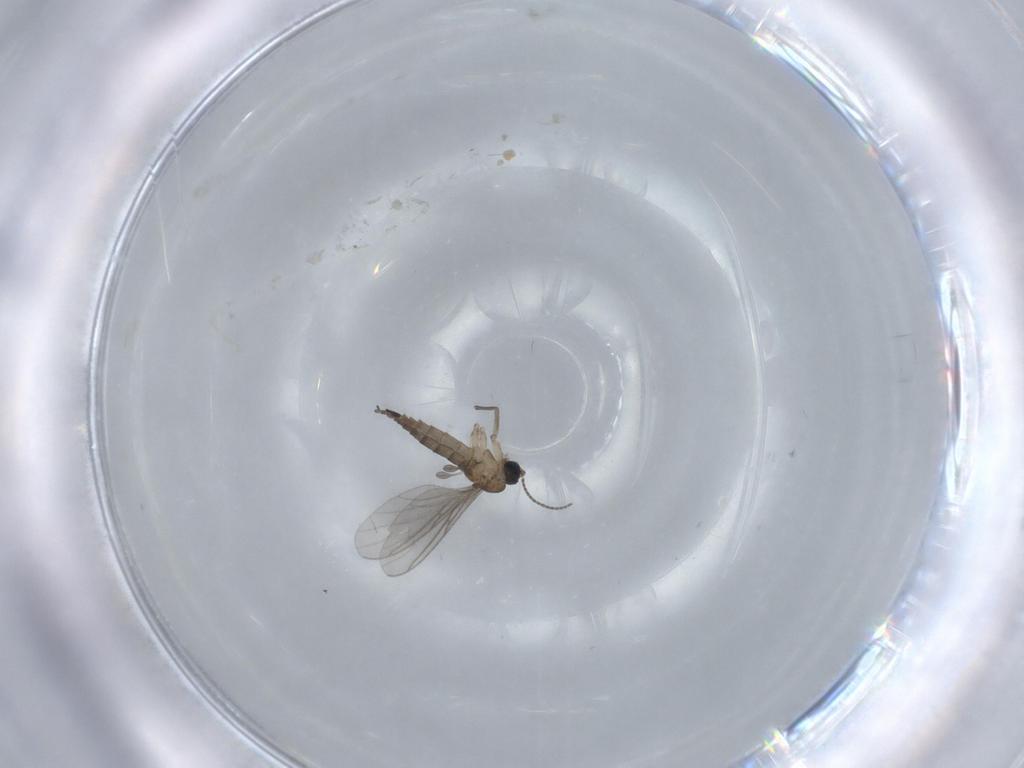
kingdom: Animalia
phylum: Arthropoda
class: Insecta
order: Diptera
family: Sciaridae
